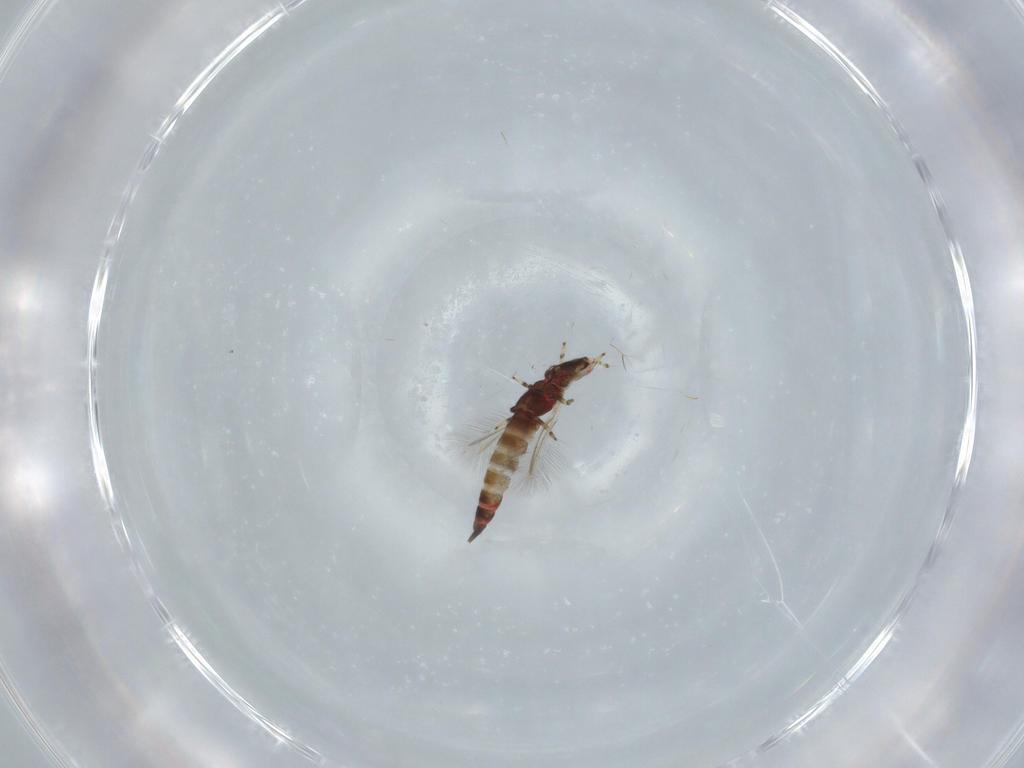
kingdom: Animalia
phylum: Arthropoda
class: Insecta
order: Thysanoptera
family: Phlaeothripidae
